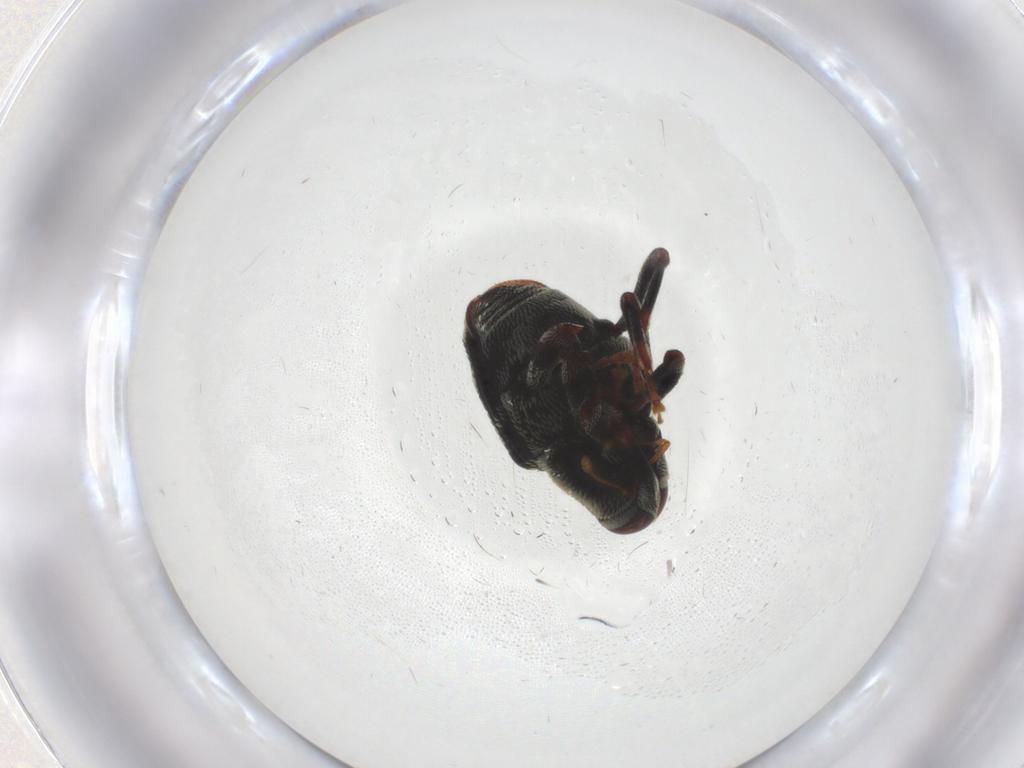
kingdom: Animalia
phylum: Arthropoda
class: Insecta
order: Coleoptera
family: Curculionidae
